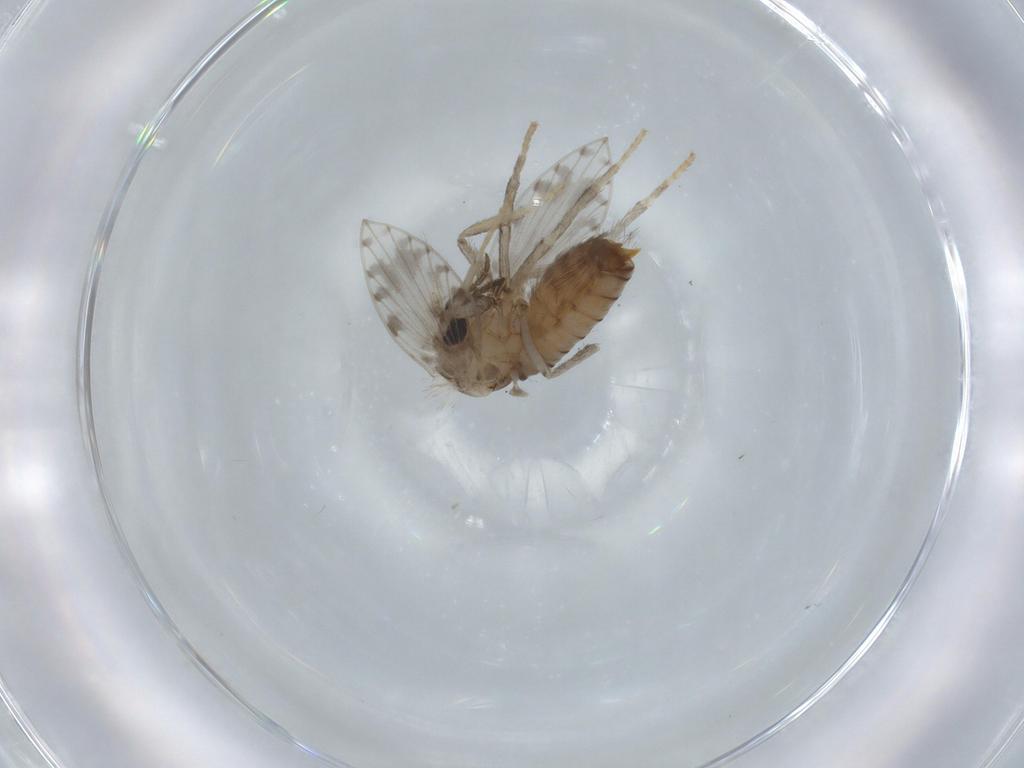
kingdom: Animalia
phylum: Arthropoda
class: Insecta
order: Diptera
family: Psychodidae
